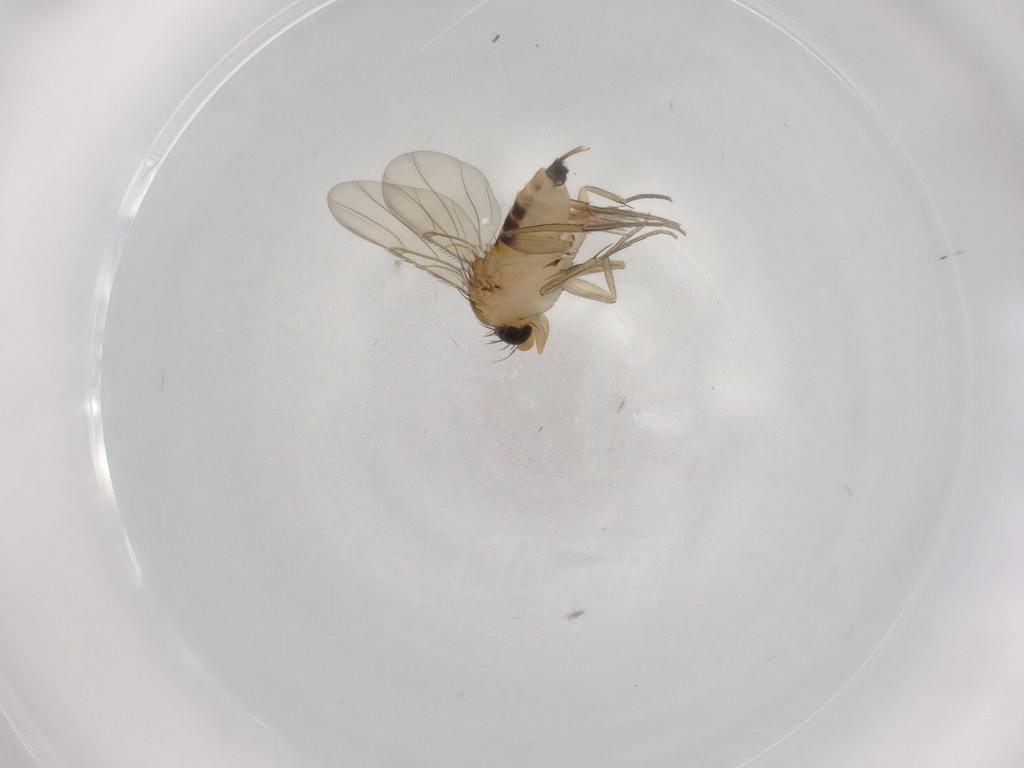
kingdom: Animalia
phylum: Arthropoda
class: Insecta
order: Diptera
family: Phoridae
